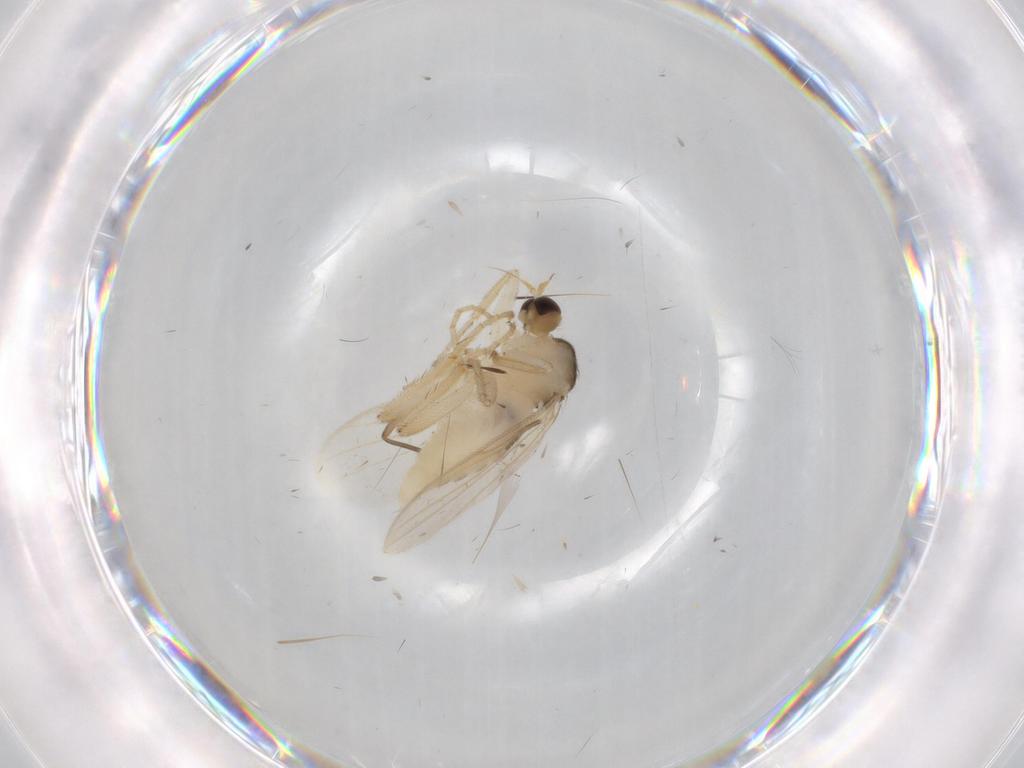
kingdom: Animalia
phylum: Arthropoda
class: Insecta
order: Diptera
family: Hybotidae
